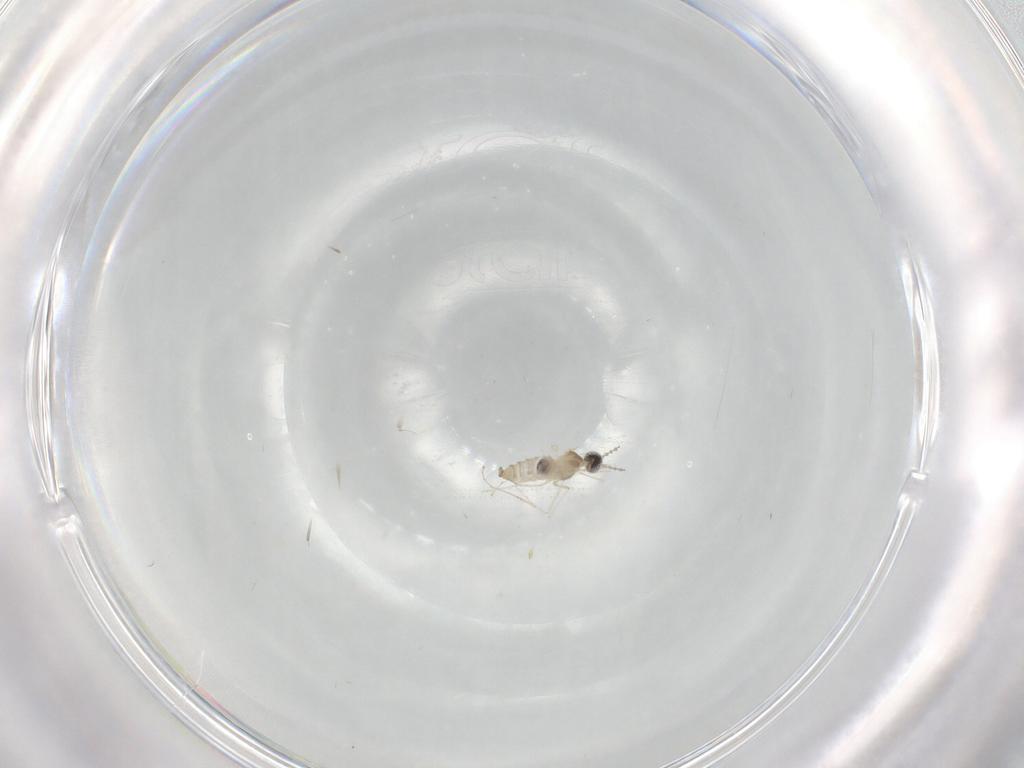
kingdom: Animalia
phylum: Arthropoda
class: Insecta
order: Diptera
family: Cecidomyiidae
